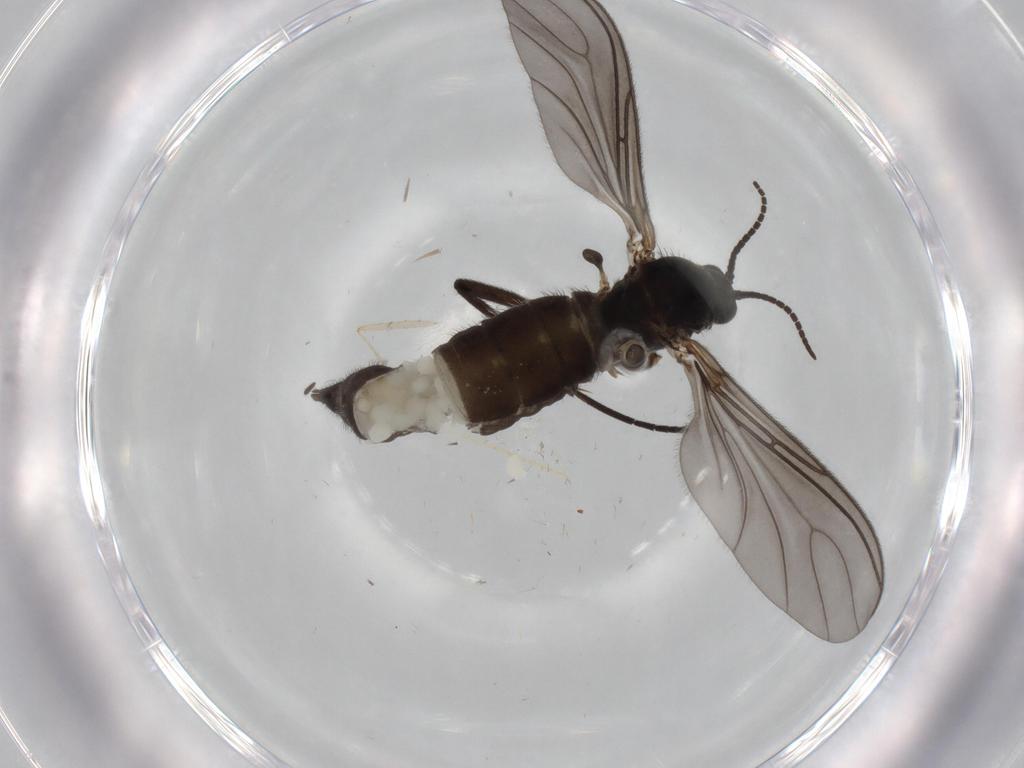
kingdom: Animalia
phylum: Arthropoda
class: Insecta
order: Diptera
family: Sciaridae
